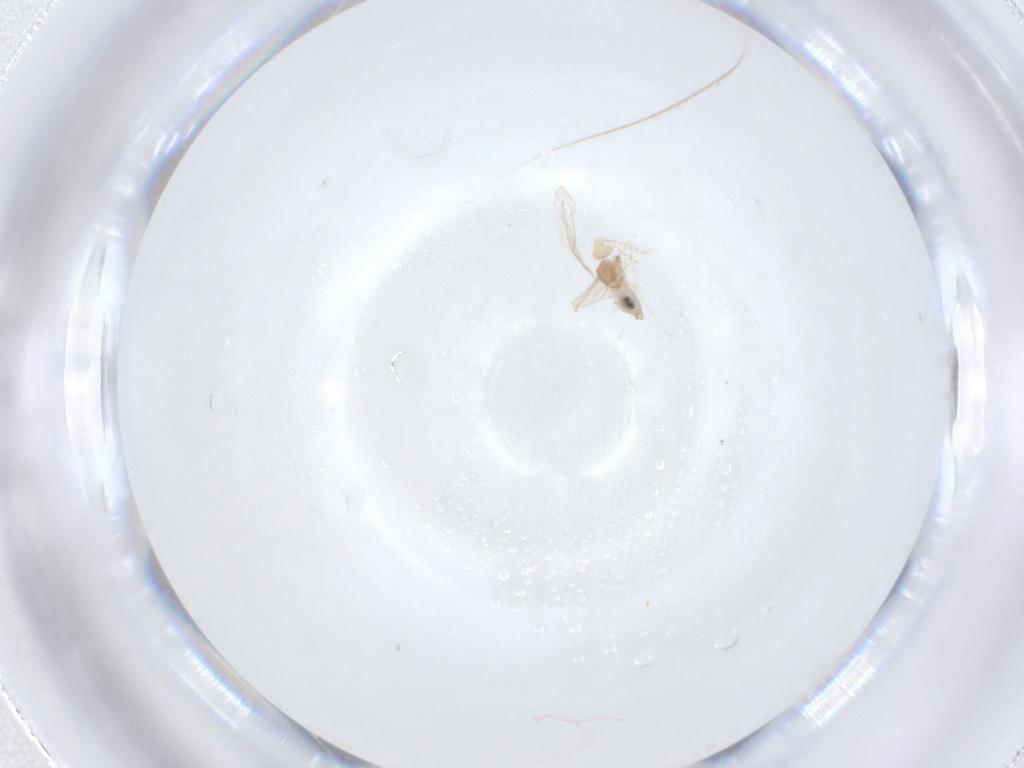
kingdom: Animalia
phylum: Arthropoda
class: Insecta
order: Diptera
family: Cecidomyiidae
